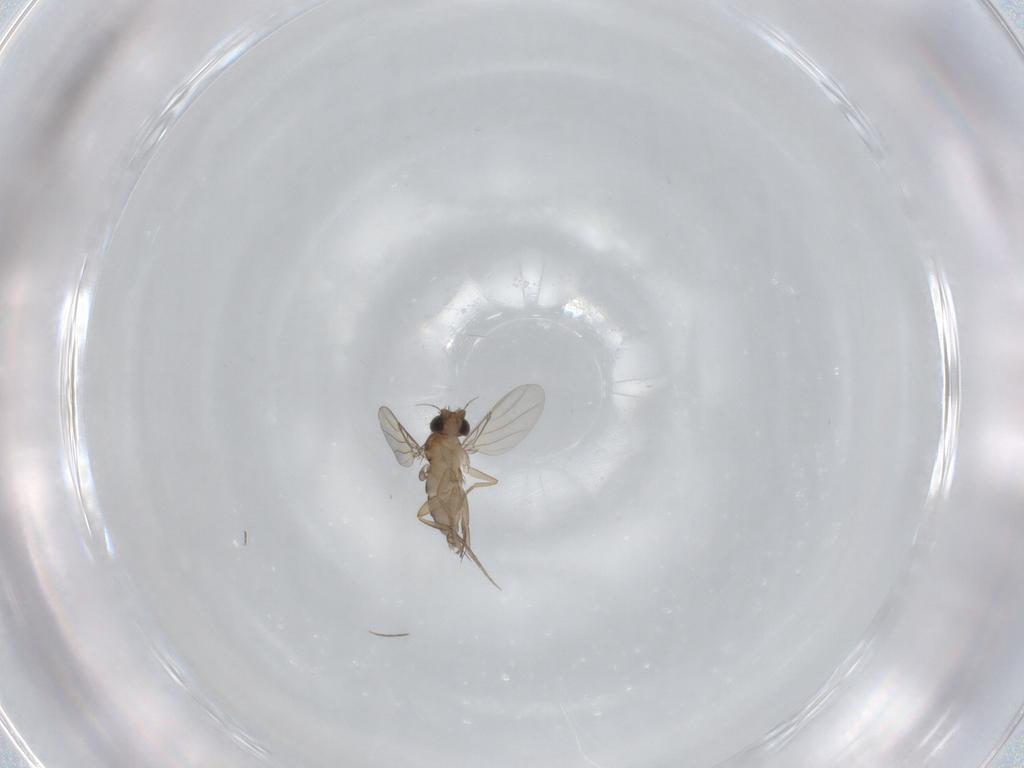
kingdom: Animalia
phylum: Arthropoda
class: Insecta
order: Diptera
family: Phoridae
